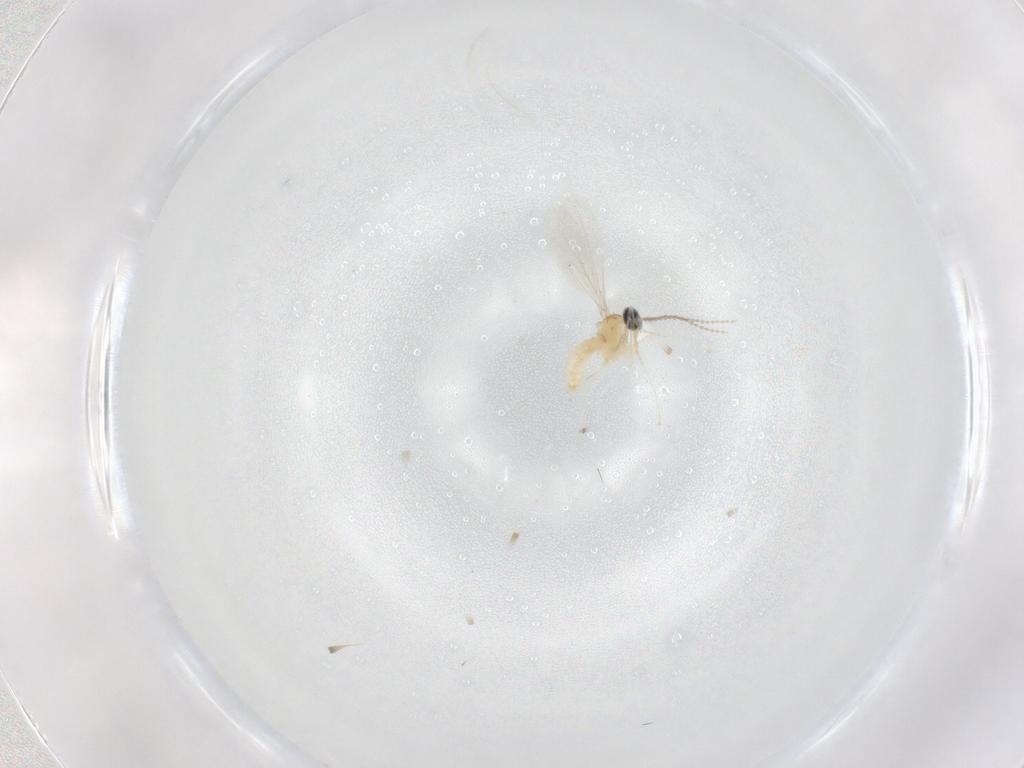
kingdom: Animalia
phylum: Arthropoda
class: Insecta
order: Diptera
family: Cecidomyiidae
